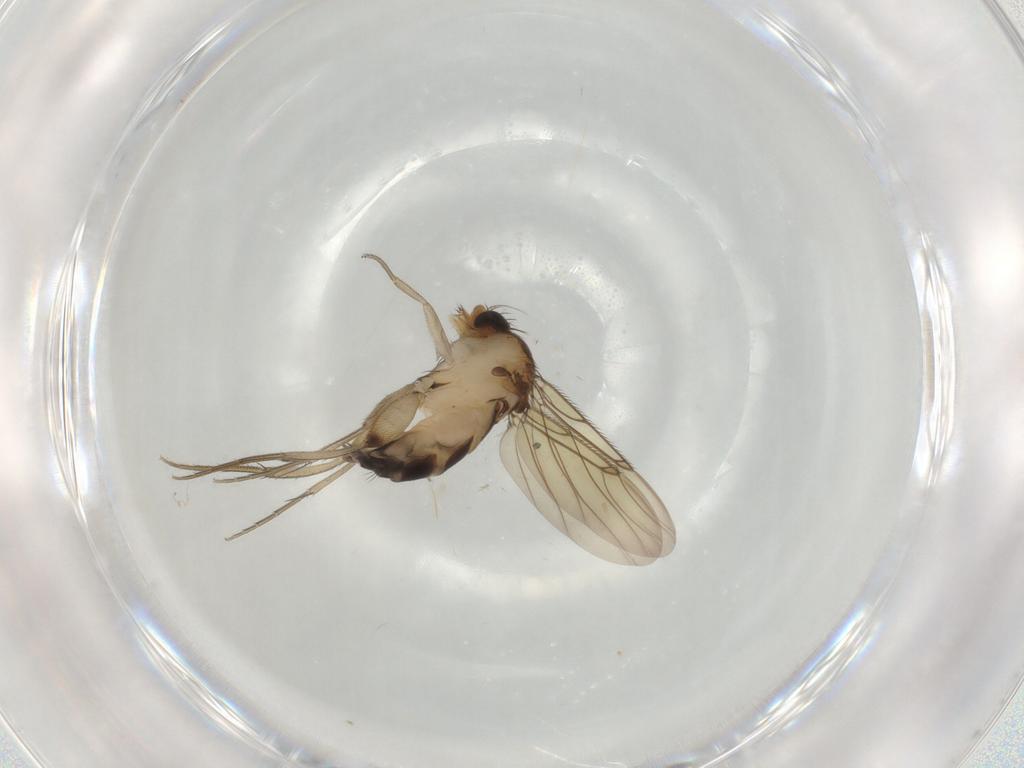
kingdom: Animalia
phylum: Arthropoda
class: Insecta
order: Diptera
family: Phoridae
